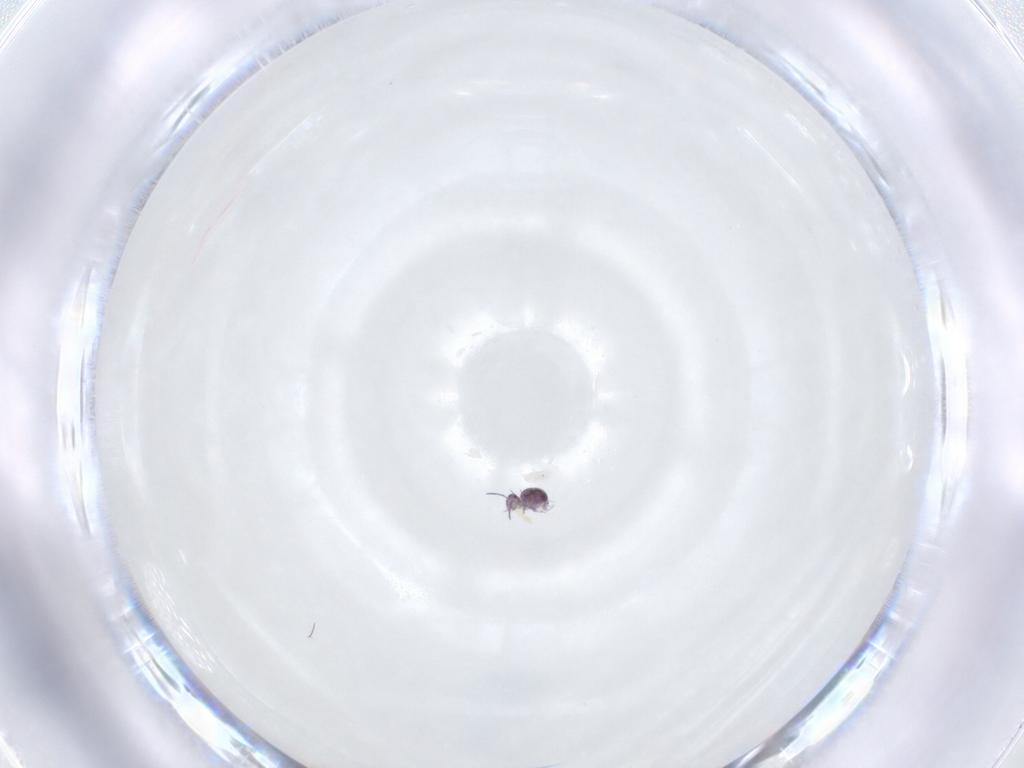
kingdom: Animalia
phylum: Arthropoda
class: Collembola
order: Symphypleona
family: Sminthurididae
